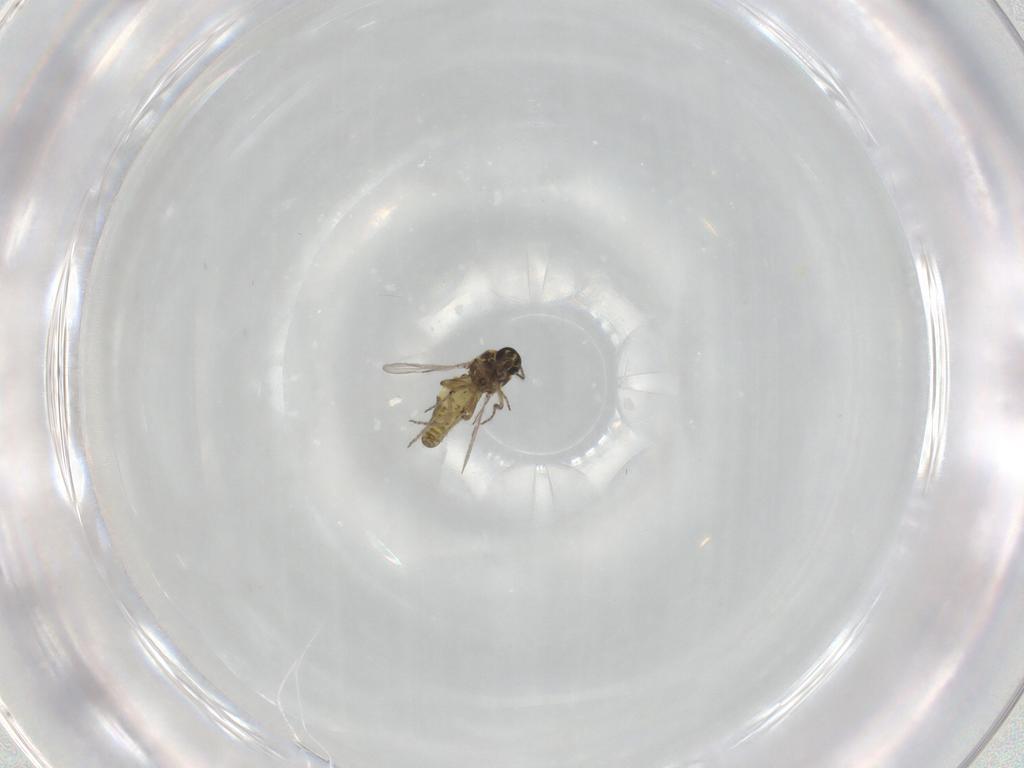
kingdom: Animalia
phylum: Arthropoda
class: Insecta
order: Diptera
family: Ceratopogonidae
